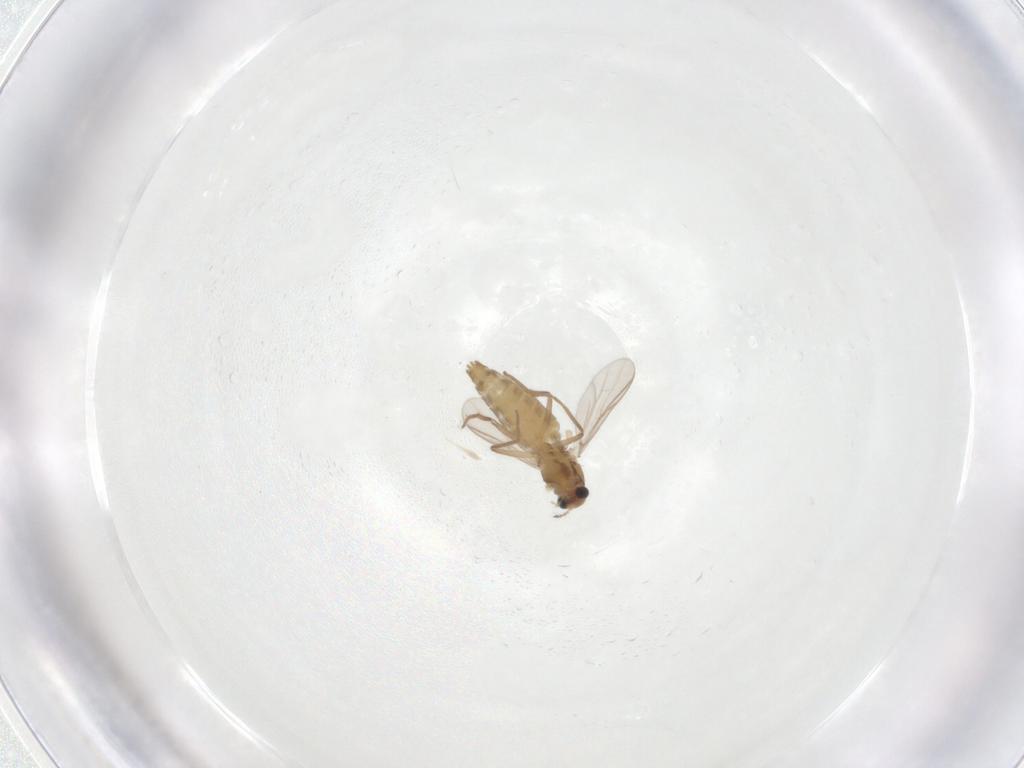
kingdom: Animalia
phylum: Arthropoda
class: Insecta
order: Diptera
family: Chironomidae
